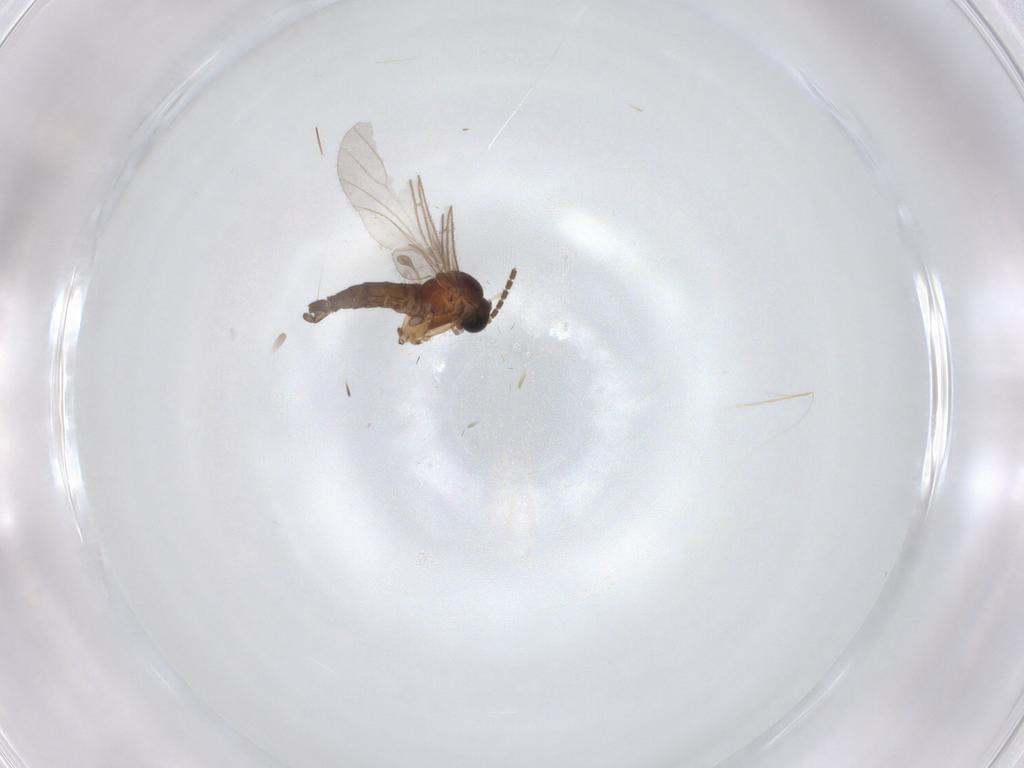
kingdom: Animalia
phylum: Arthropoda
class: Insecta
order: Diptera
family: Sciaridae
